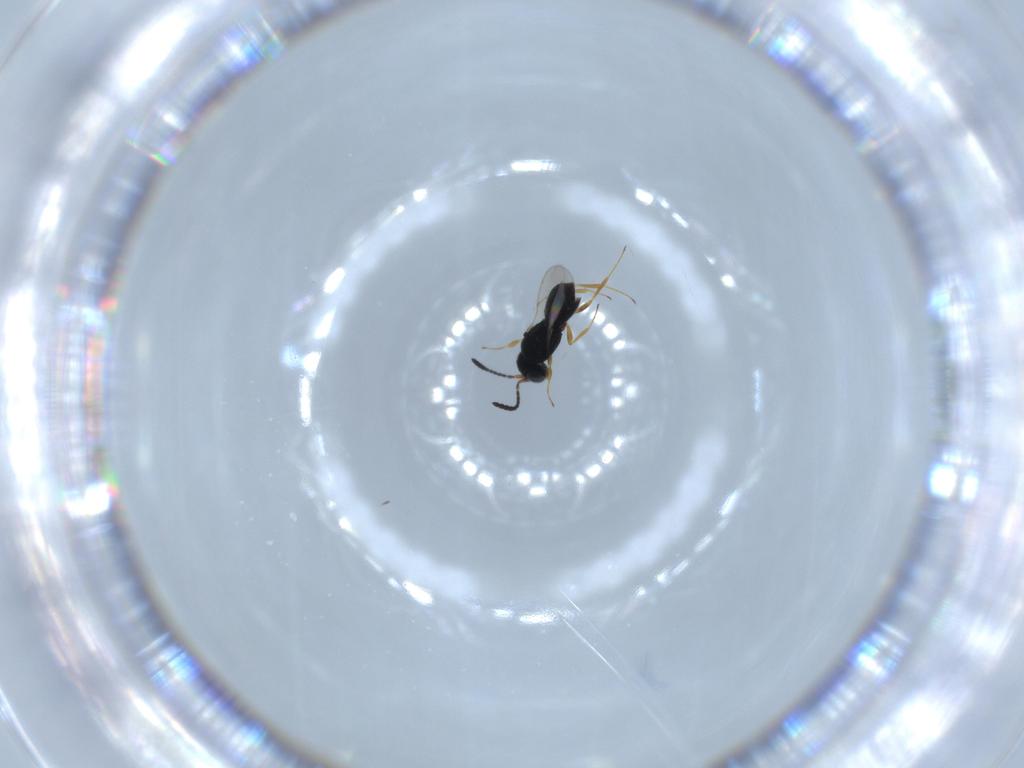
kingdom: Animalia
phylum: Arthropoda
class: Insecta
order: Hymenoptera
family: Scelionidae
